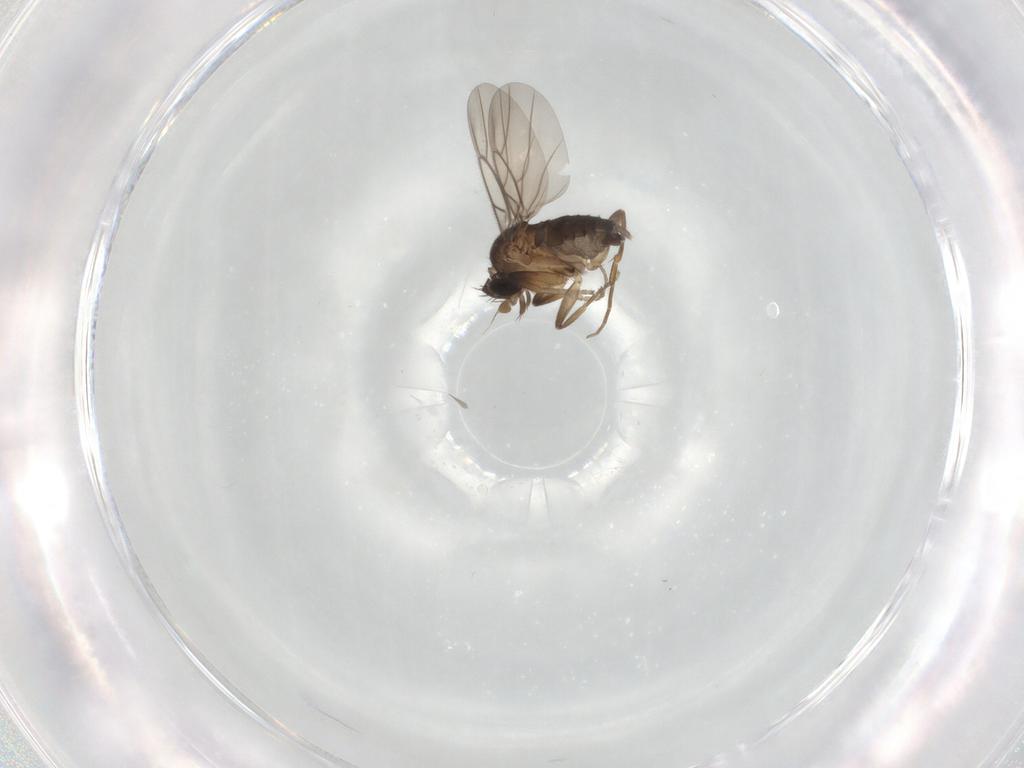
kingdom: Animalia
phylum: Arthropoda
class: Insecta
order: Diptera
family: Phoridae
